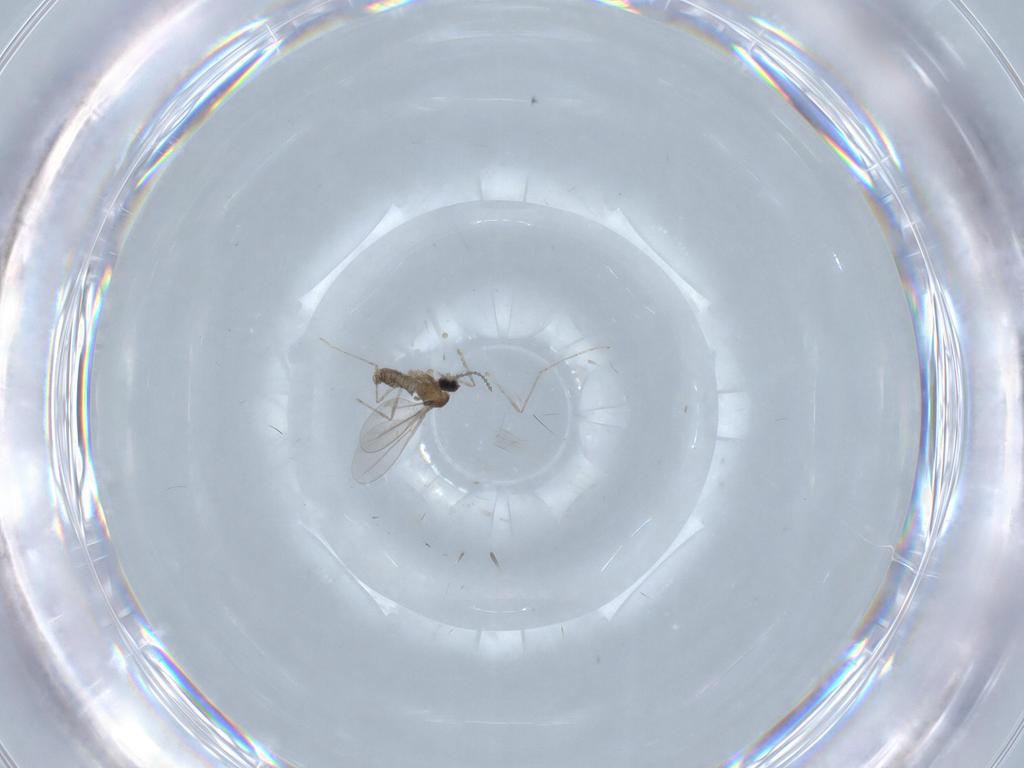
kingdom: Animalia
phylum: Arthropoda
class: Insecta
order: Diptera
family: Cecidomyiidae
